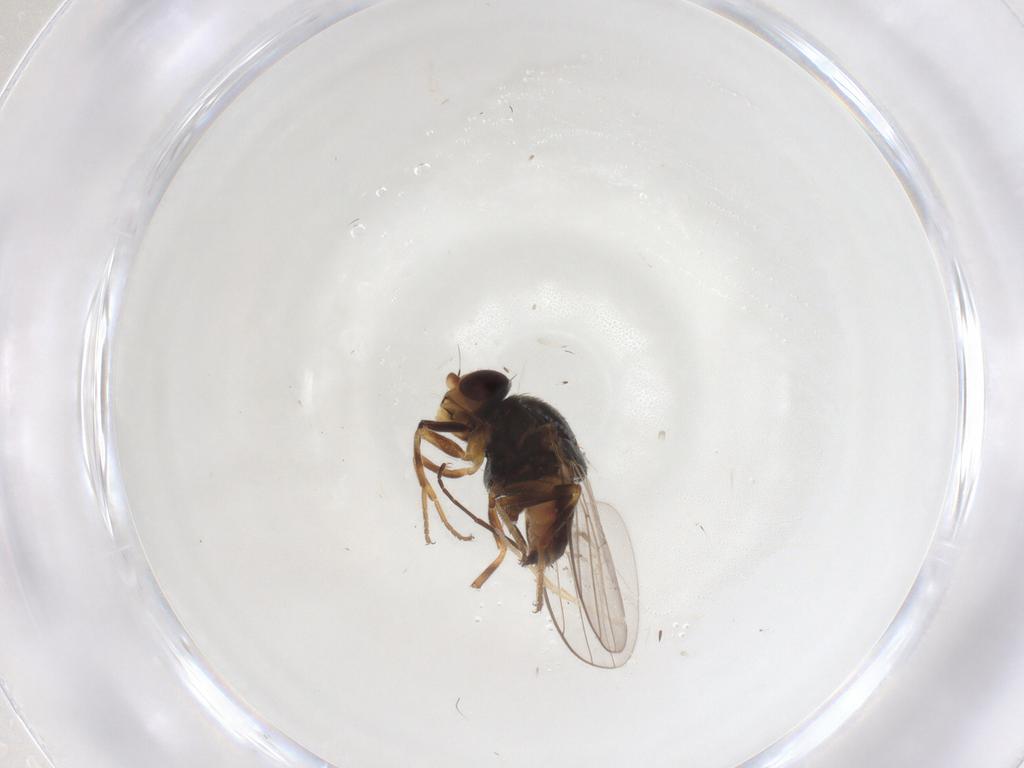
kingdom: Animalia
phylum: Arthropoda
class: Insecta
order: Diptera
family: Chloropidae
